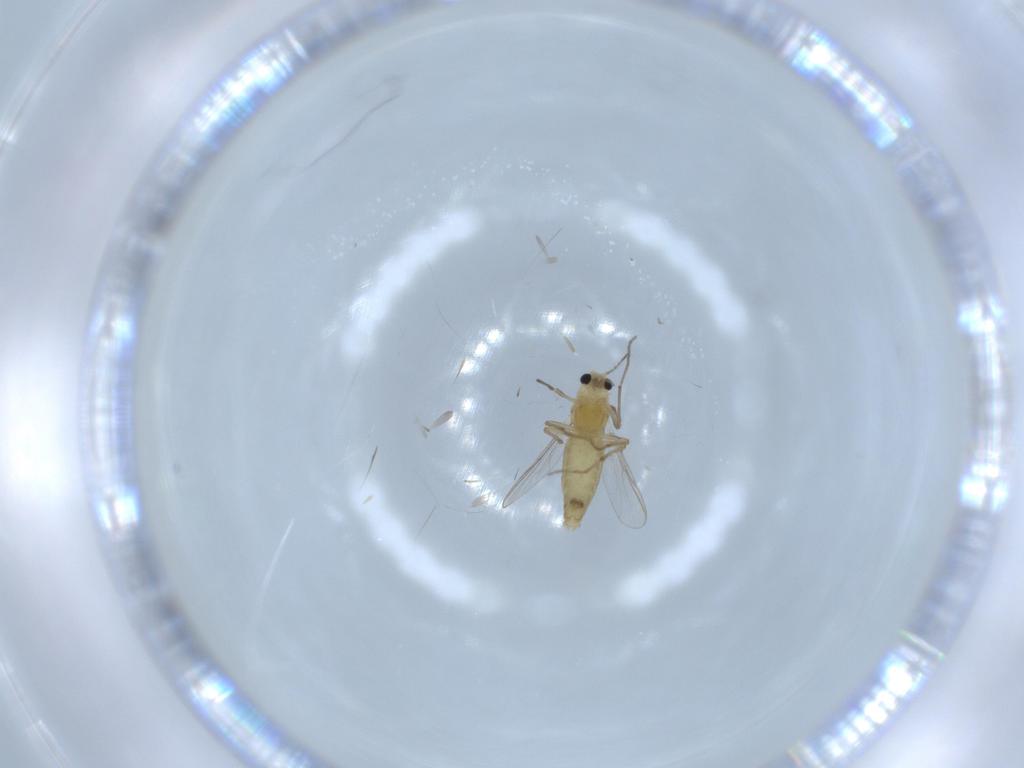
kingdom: Animalia
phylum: Arthropoda
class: Insecta
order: Diptera
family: Chironomidae
